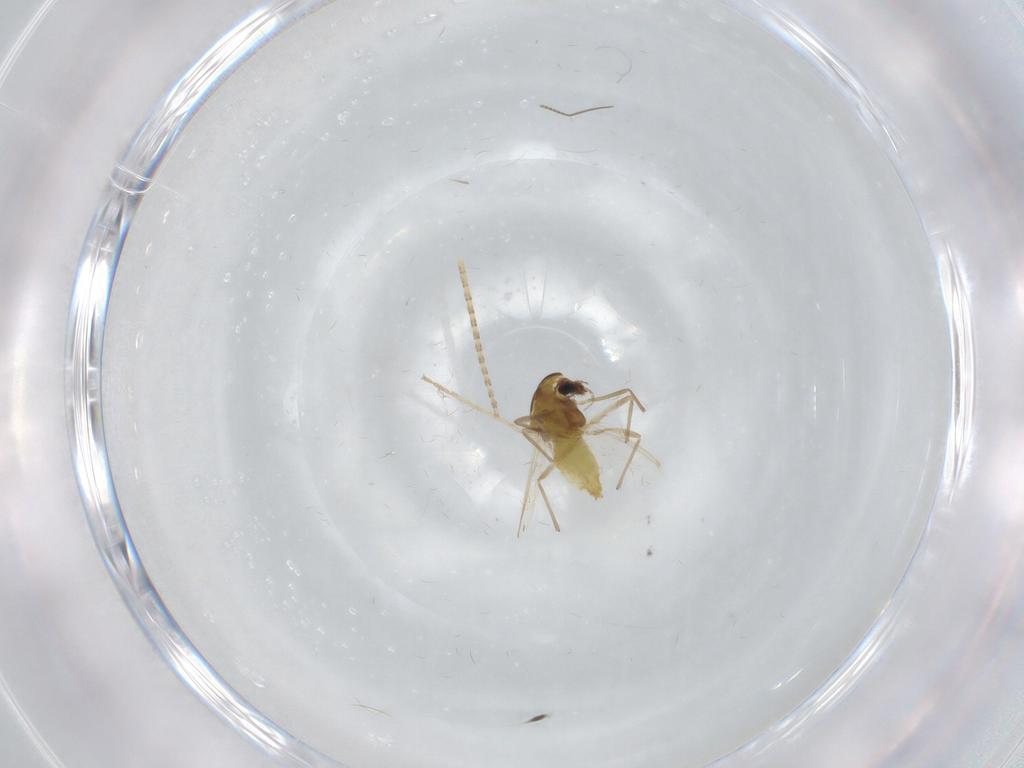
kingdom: Animalia
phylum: Arthropoda
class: Insecta
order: Diptera
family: Chironomidae
